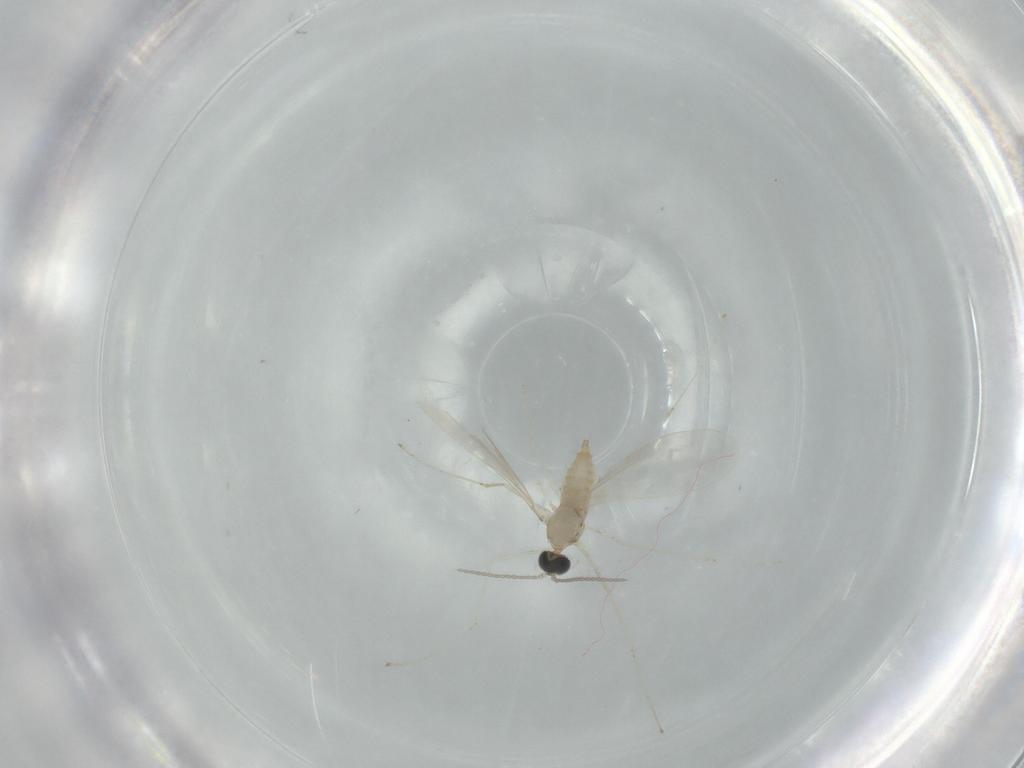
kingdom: Animalia
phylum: Arthropoda
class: Insecta
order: Diptera
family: Cecidomyiidae
